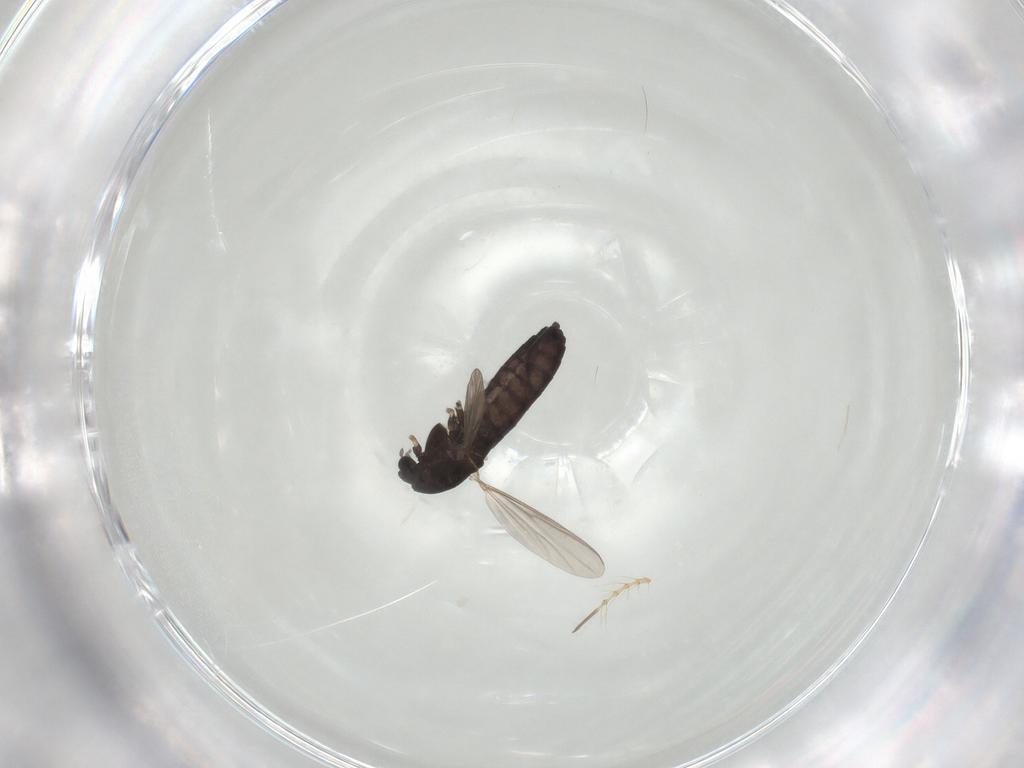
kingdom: Animalia
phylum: Arthropoda
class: Insecta
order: Diptera
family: Chironomidae
